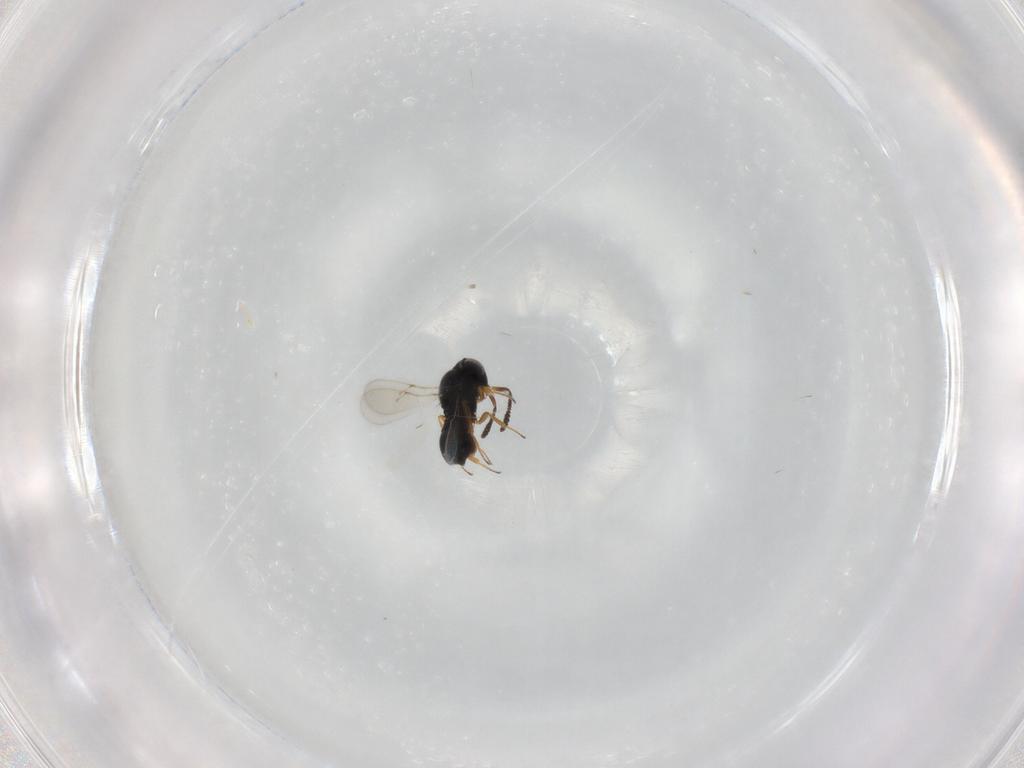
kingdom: Animalia
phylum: Arthropoda
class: Insecta
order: Hymenoptera
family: Scelionidae
